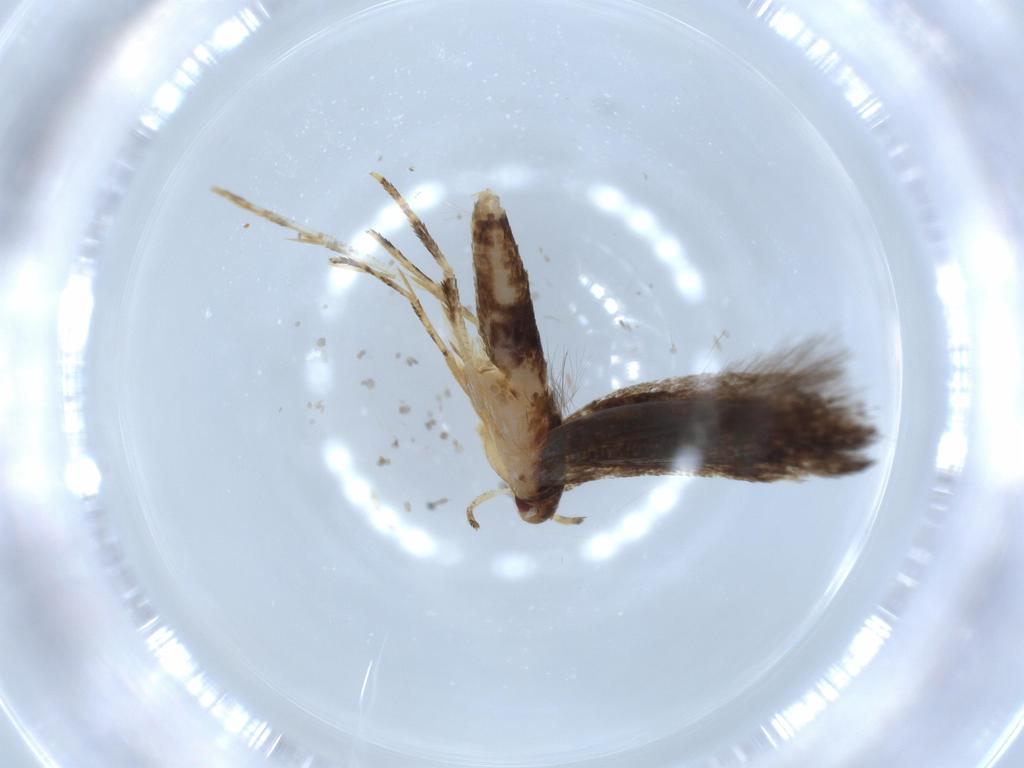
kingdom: Animalia
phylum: Arthropoda
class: Insecta
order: Lepidoptera
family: Momphidae
